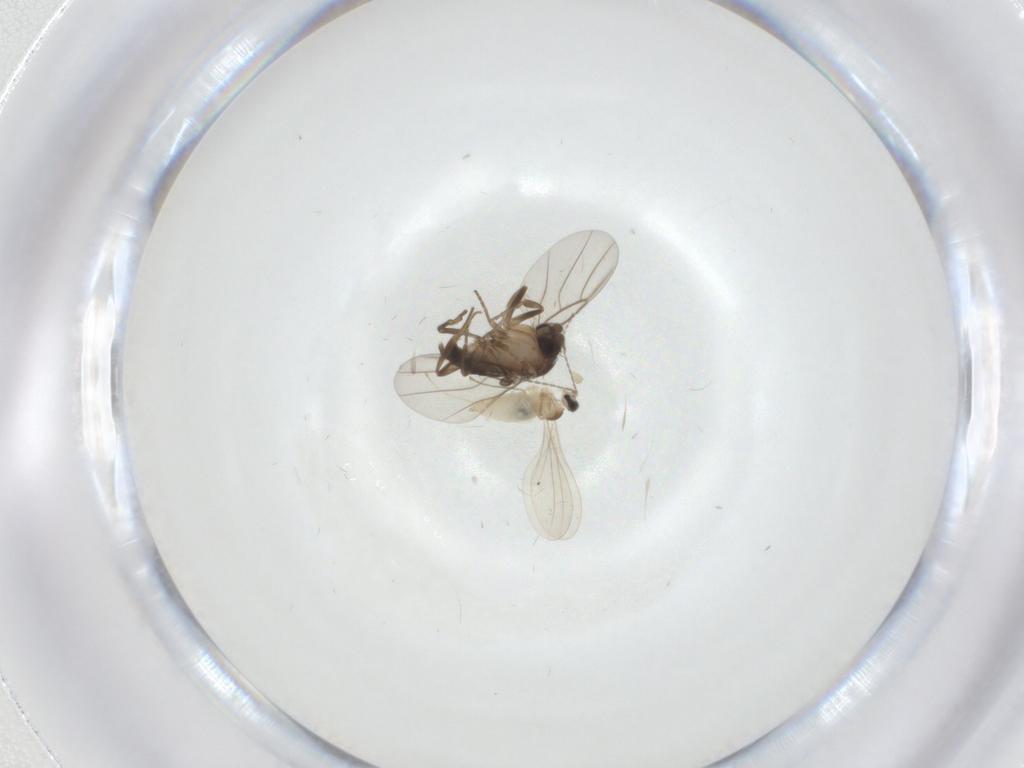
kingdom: Animalia
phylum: Arthropoda
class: Insecta
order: Diptera
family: Phoridae
